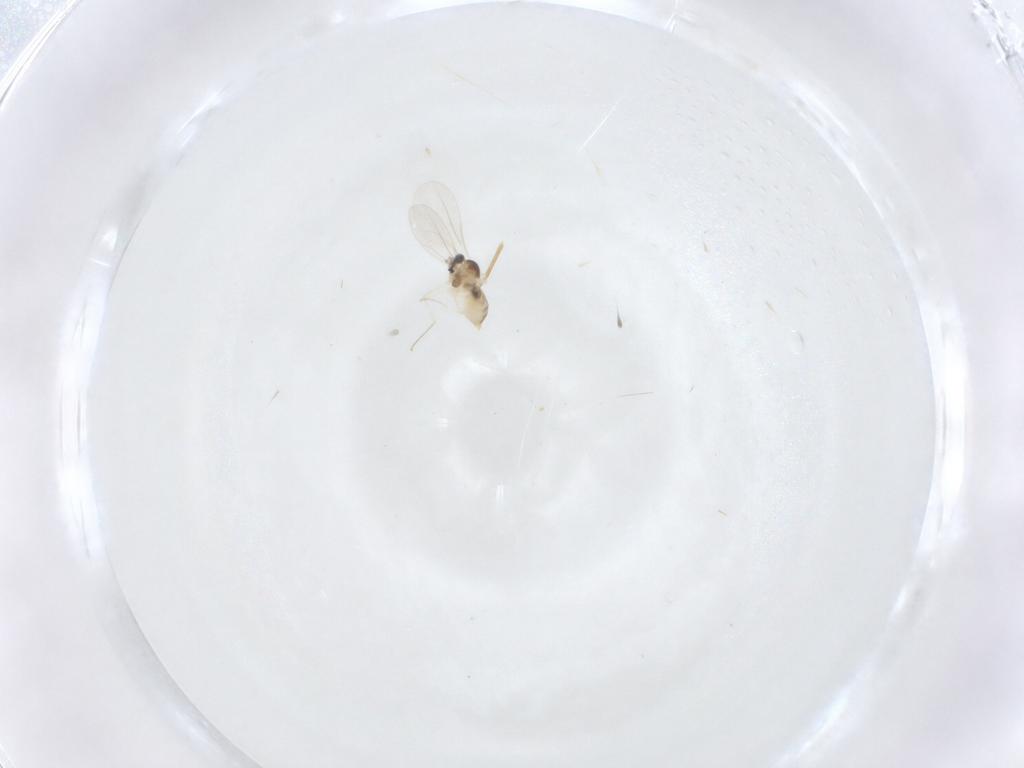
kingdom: Animalia
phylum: Arthropoda
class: Insecta
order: Diptera
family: Cecidomyiidae
